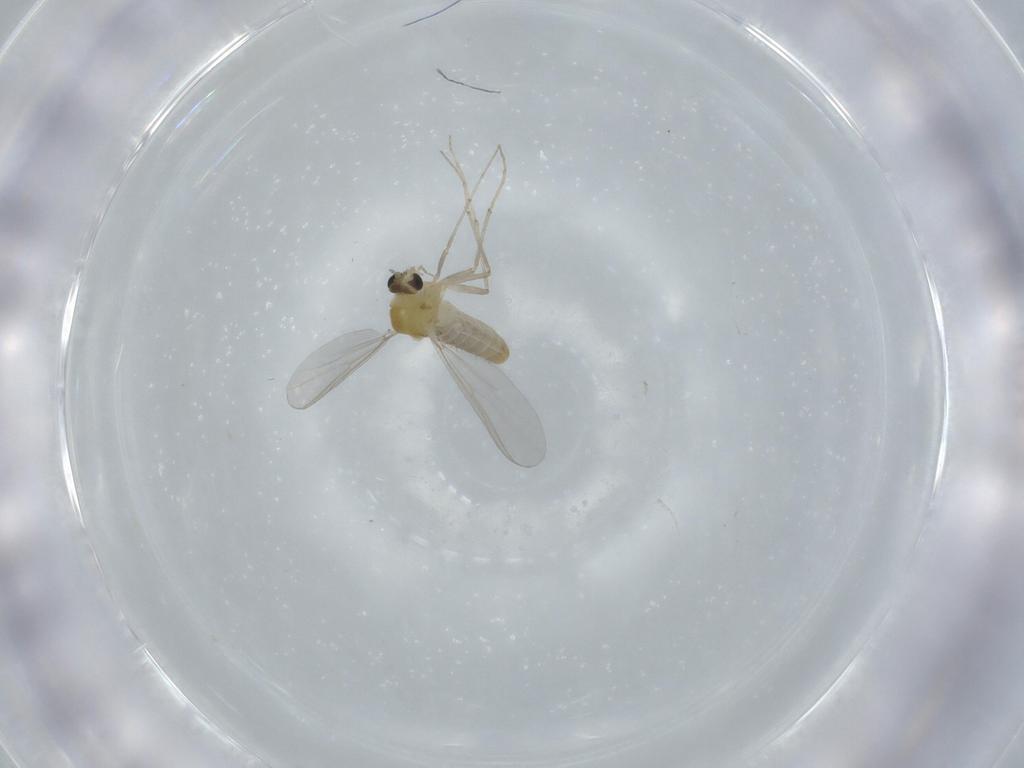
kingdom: Animalia
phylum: Arthropoda
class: Insecta
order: Diptera
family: Chironomidae
